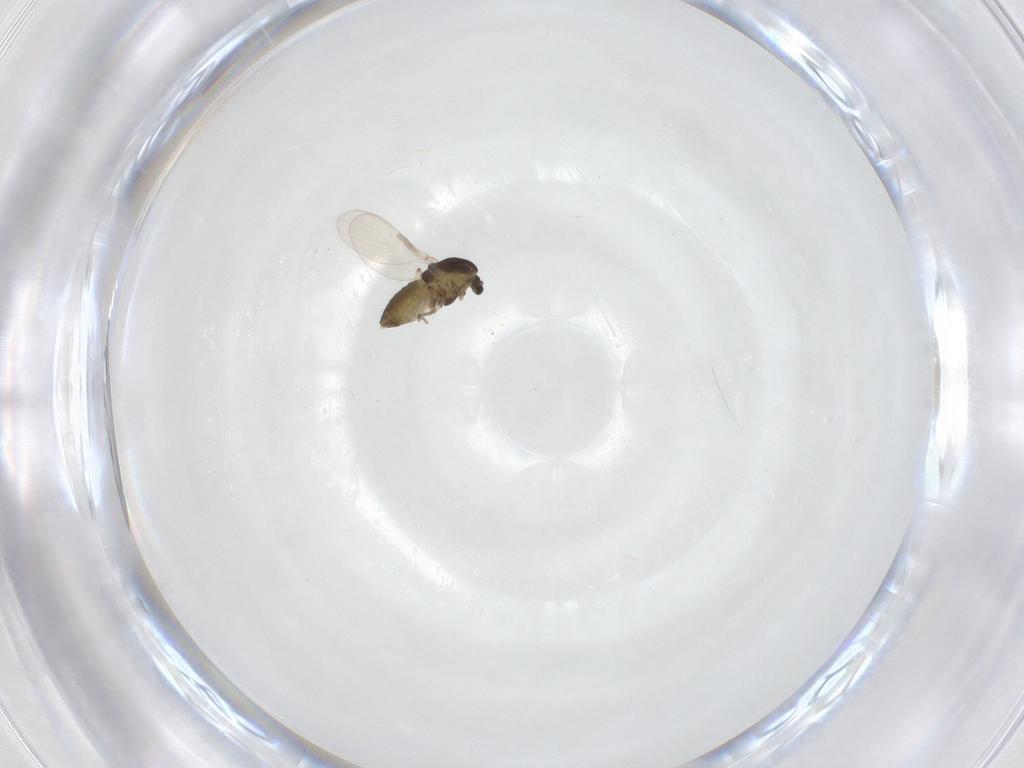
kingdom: Animalia
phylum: Arthropoda
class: Insecta
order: Diptera
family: Chironomidae
